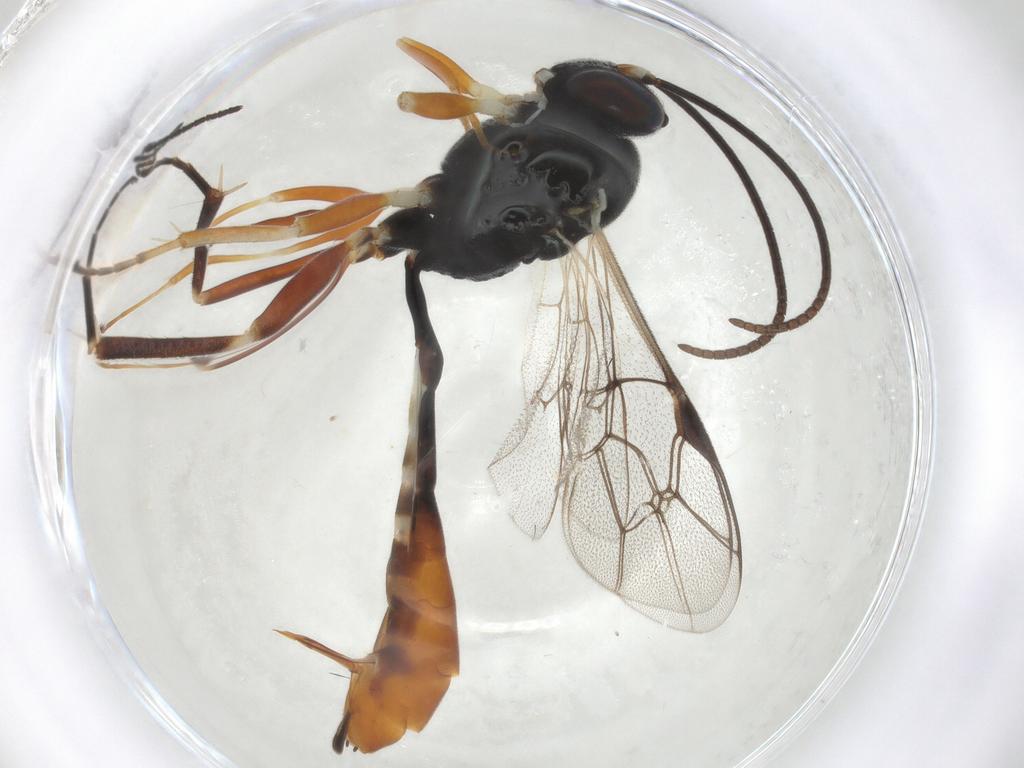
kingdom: Animalia
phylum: Arthropoda
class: Insecta
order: Hymenoptera
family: Ichneumonidae
